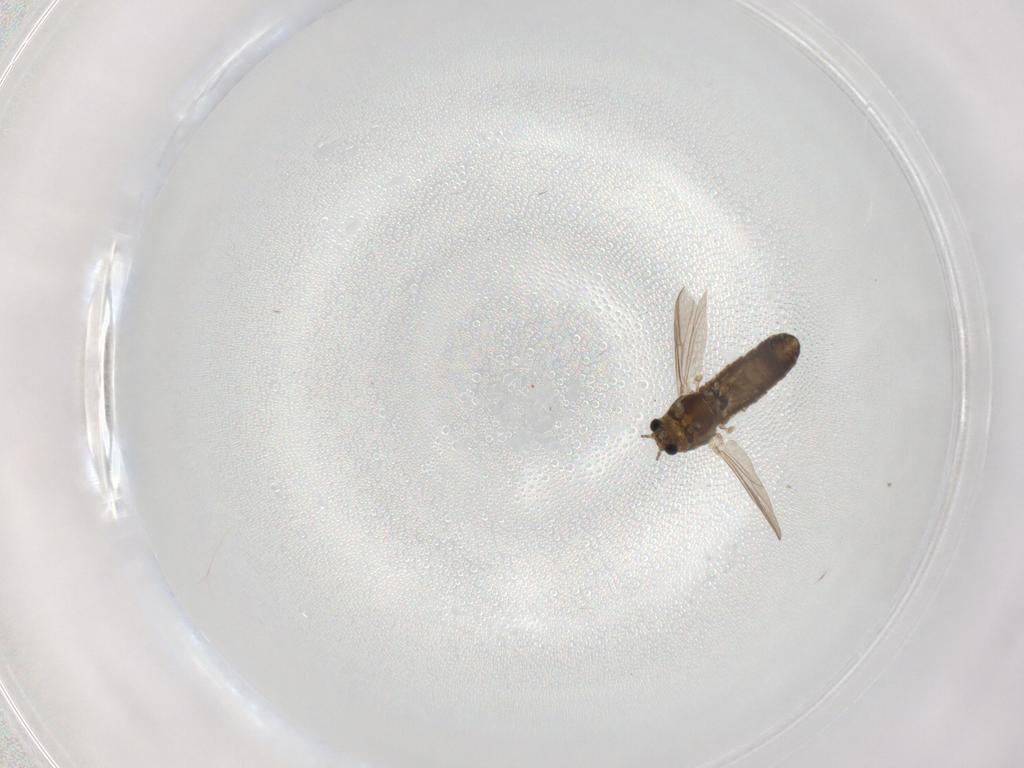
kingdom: Animalia
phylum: Arthropoda
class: Insecta
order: Diptera
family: Chironomidae
